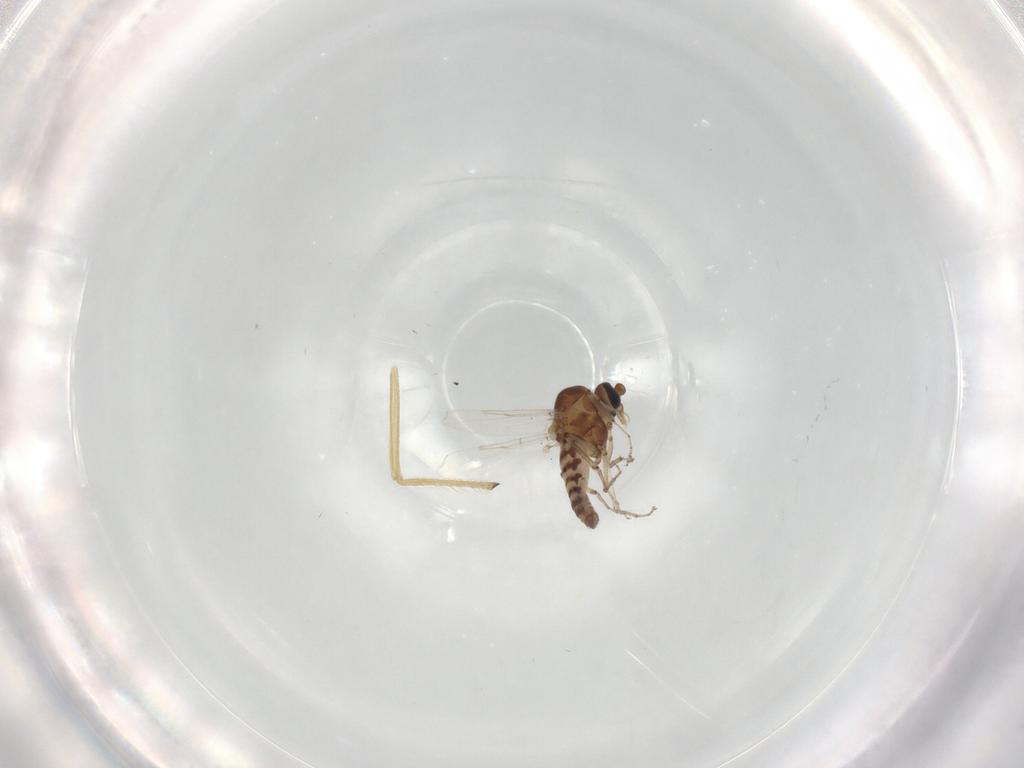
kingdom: Animalia
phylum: Arthropoda
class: Insecta
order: Diptera
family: Ceratopogonidae
